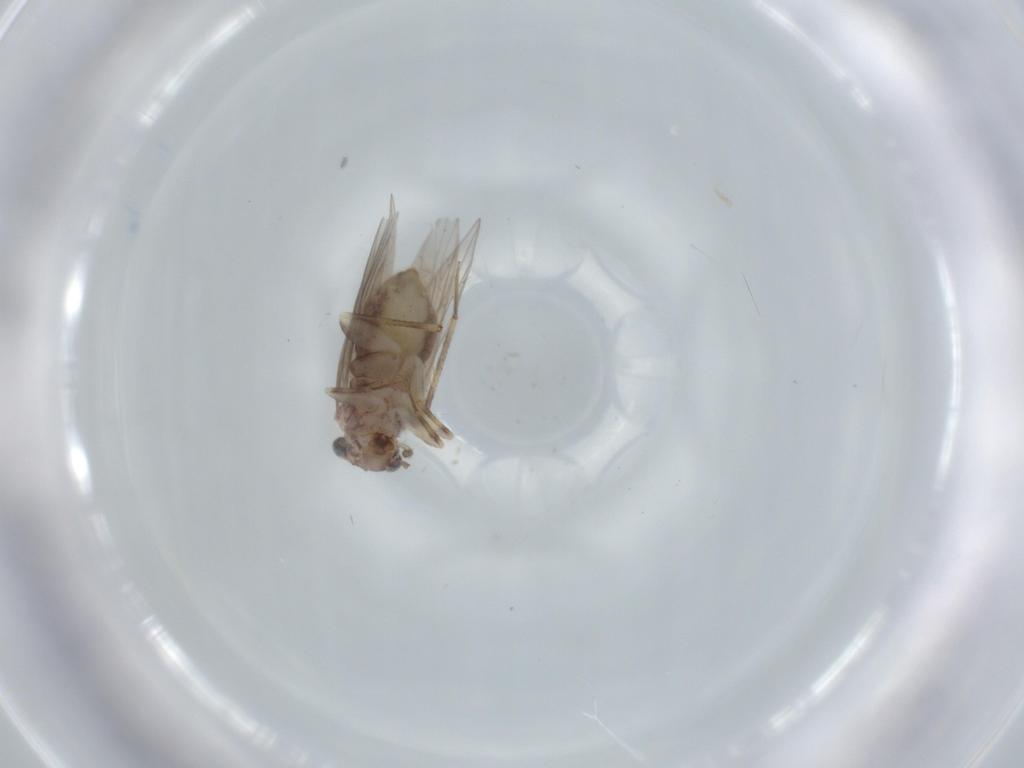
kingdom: Animalia
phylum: Arthropoda
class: Insecta
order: Psocodea
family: Lepidopsocidae
